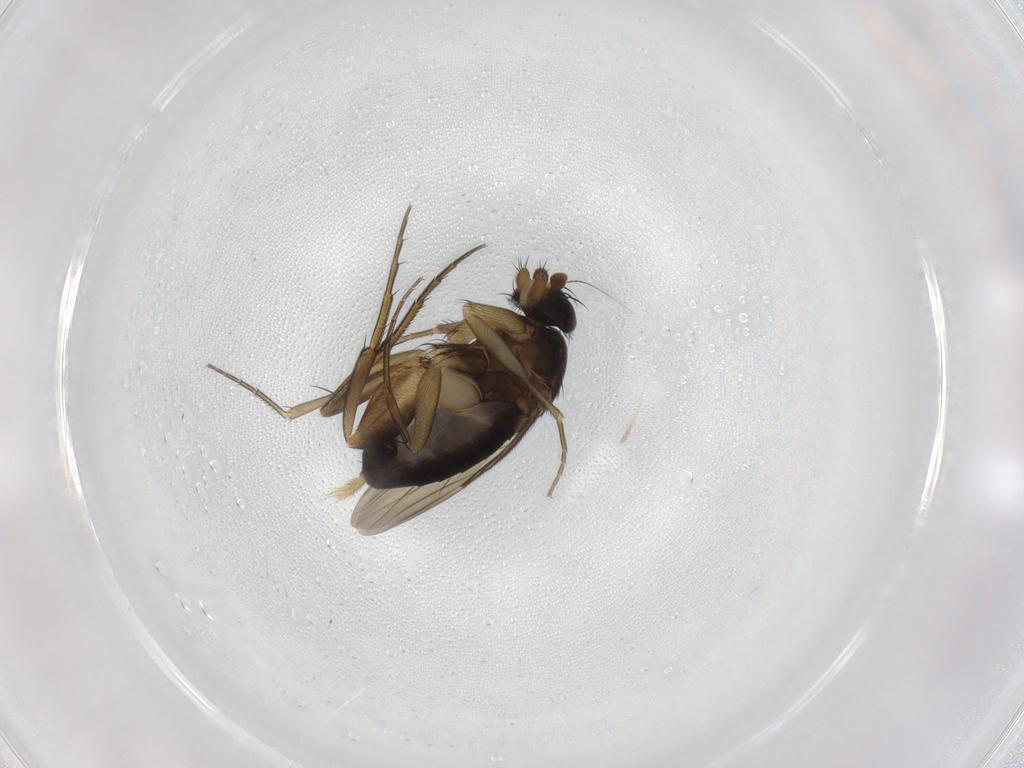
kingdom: Animalia
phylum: Arthropoda
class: Insecta
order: Diptera
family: Phoridae
